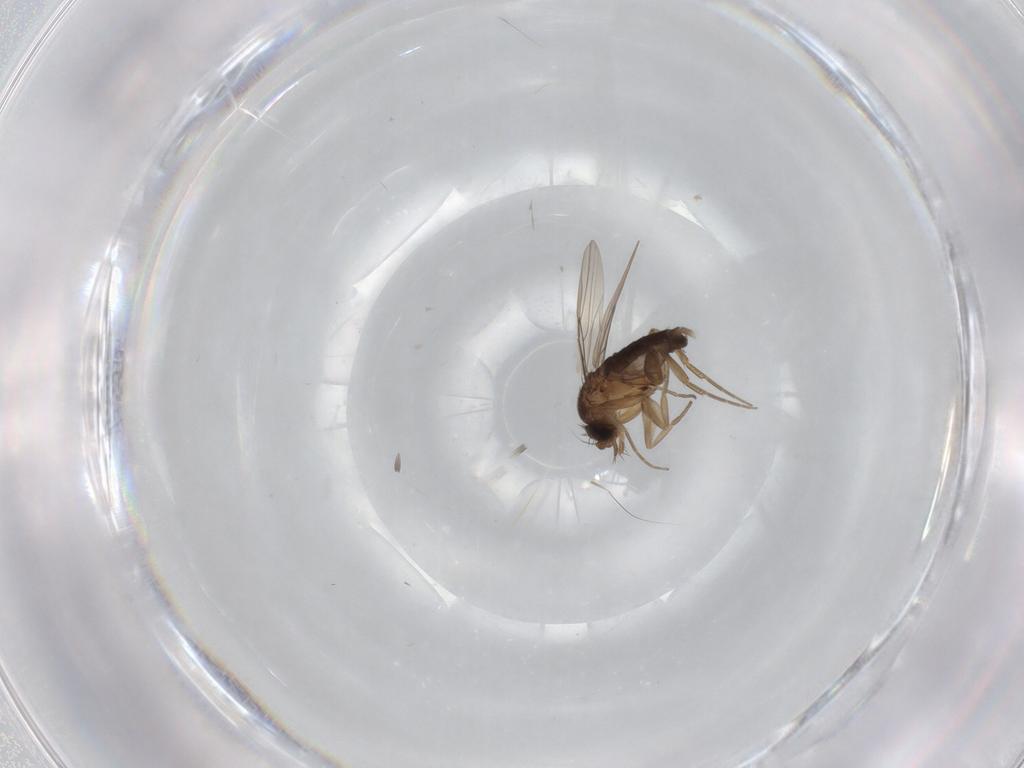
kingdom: Animalia
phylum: Arthropoda
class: Insecta
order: Diptera
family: Phoridae
